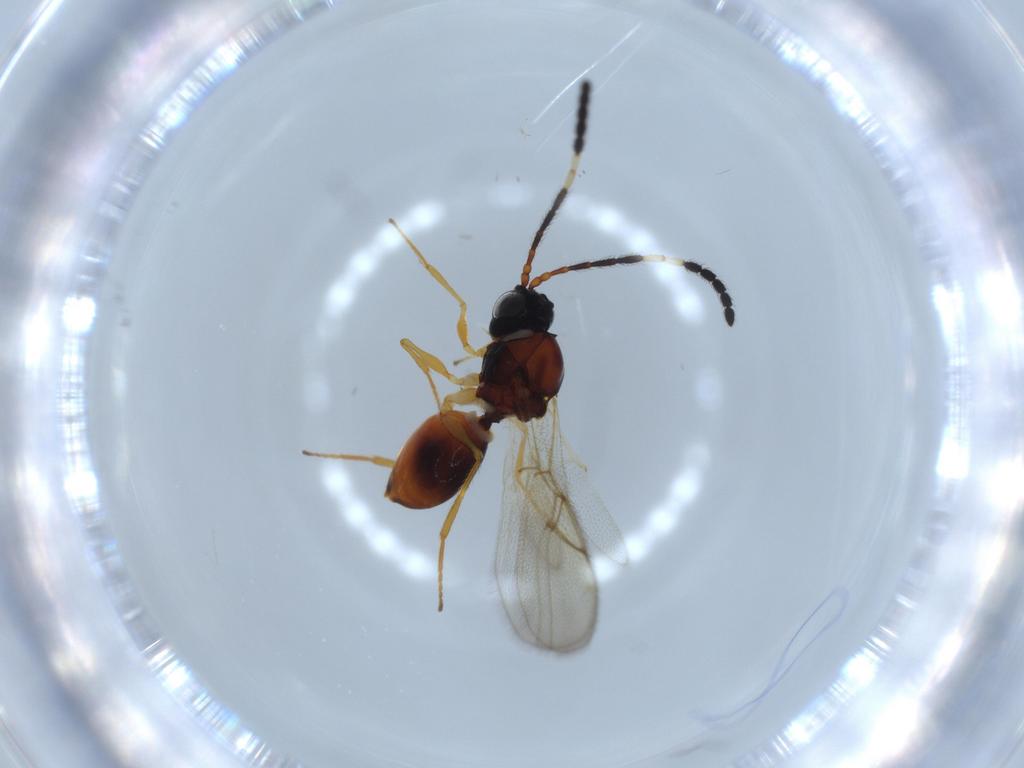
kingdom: Animalia
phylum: Arthropoda
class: Insecta
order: Hymenoptera
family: Figitidae
